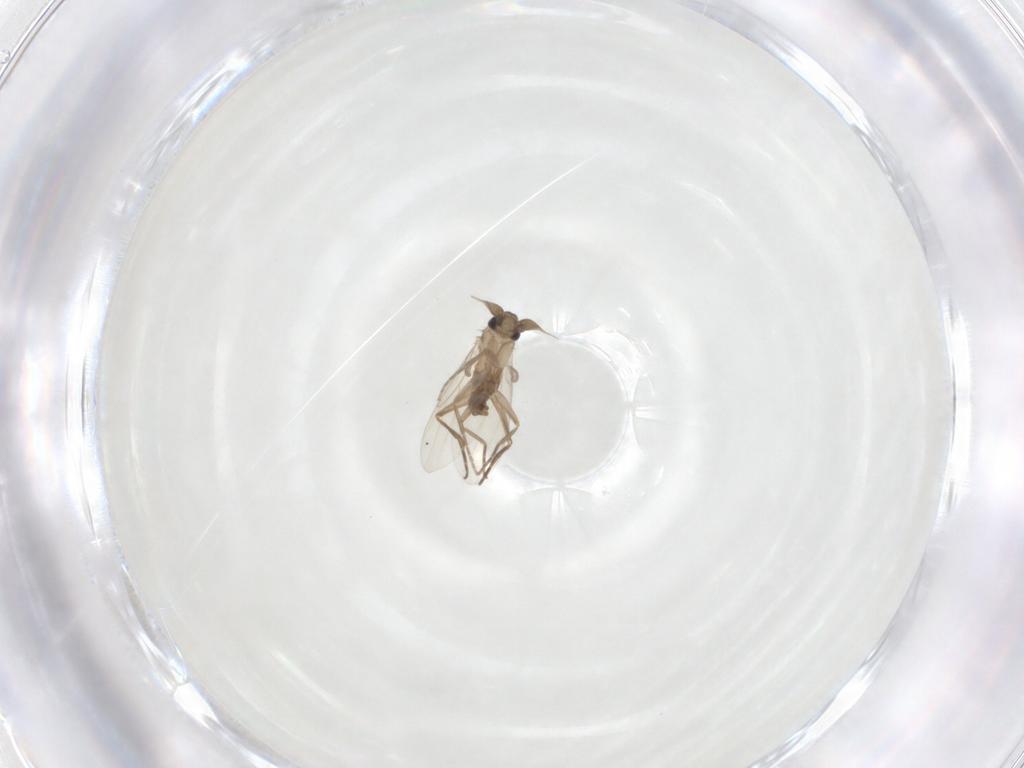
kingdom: Animalia
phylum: Arthropoda
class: Insecta
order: Diptera
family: Phoridae
